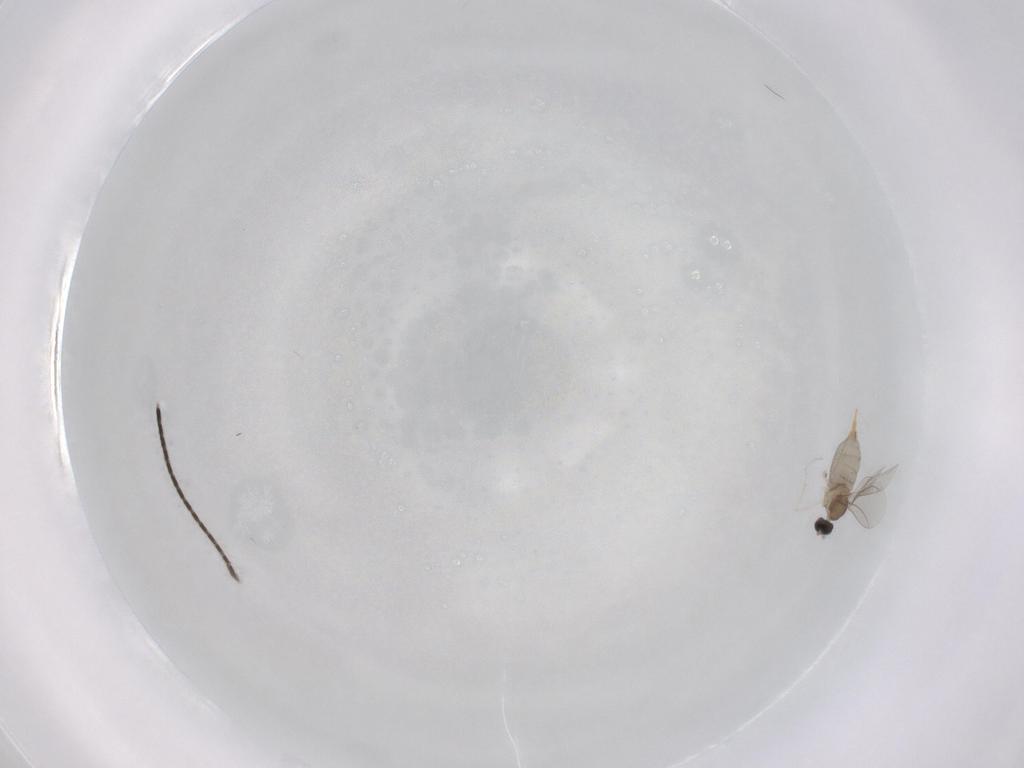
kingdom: Animalia
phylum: Arthropoda
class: Insecta
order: Diptera
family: Cecidomyiidae
